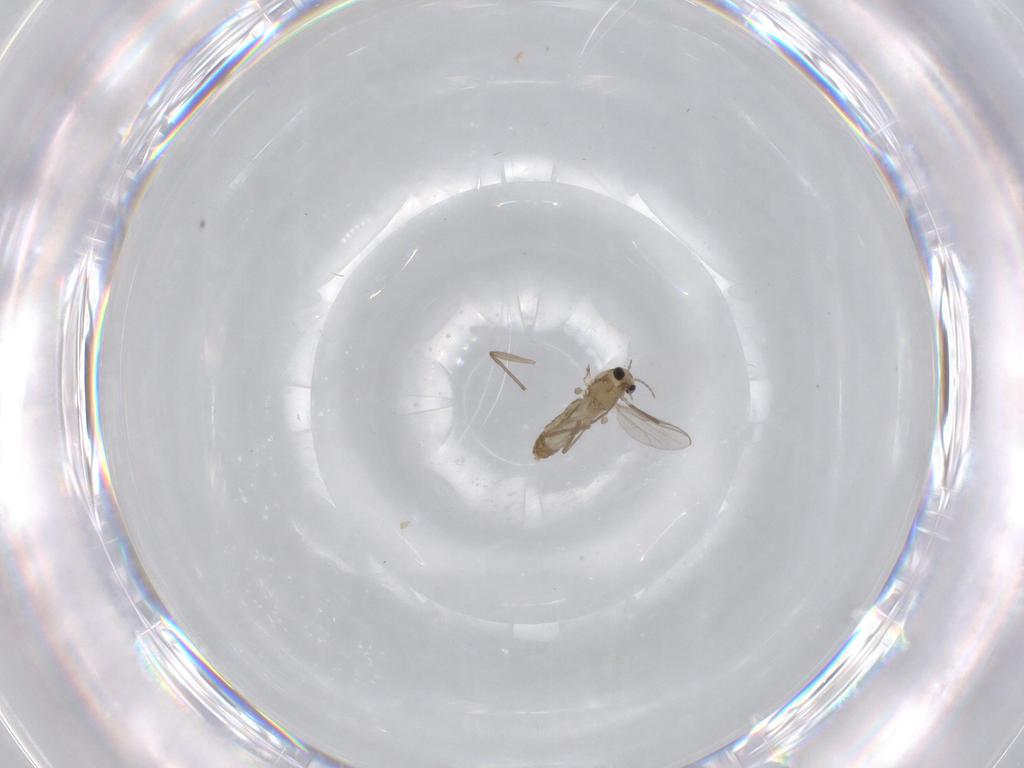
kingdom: Animalia
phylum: Arthropoda
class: Insecta
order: Diptera
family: Chironomidae
